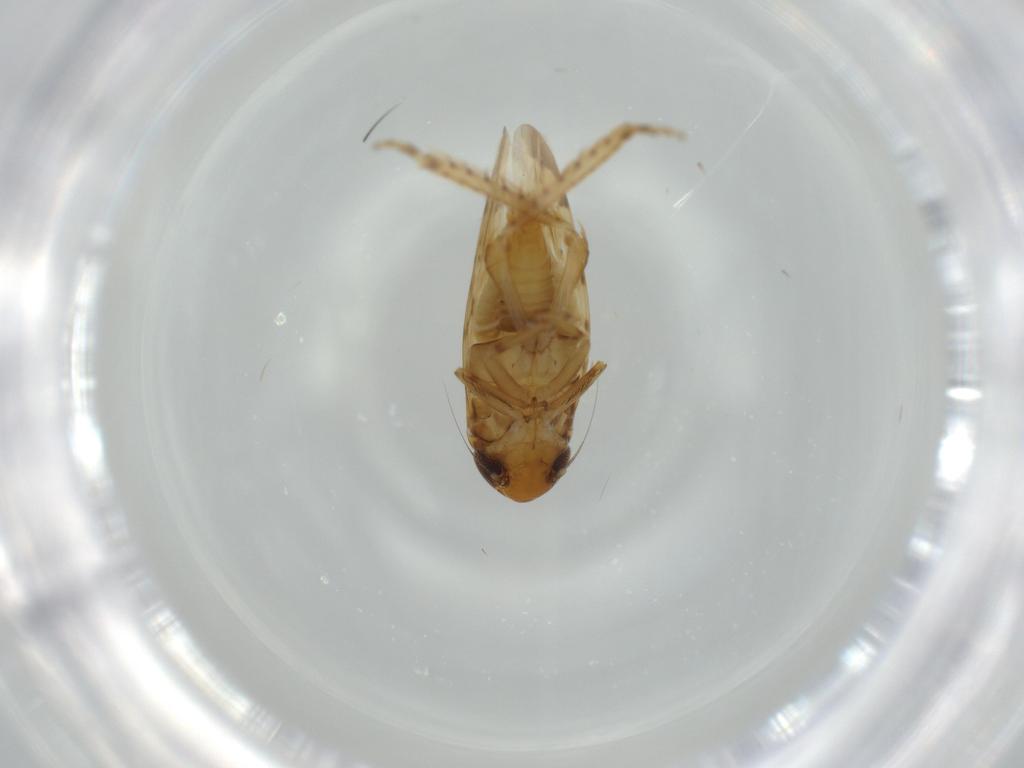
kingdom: Animalia
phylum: Arthropoda
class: Insecta
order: Hemiptera
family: Cicadellidae
